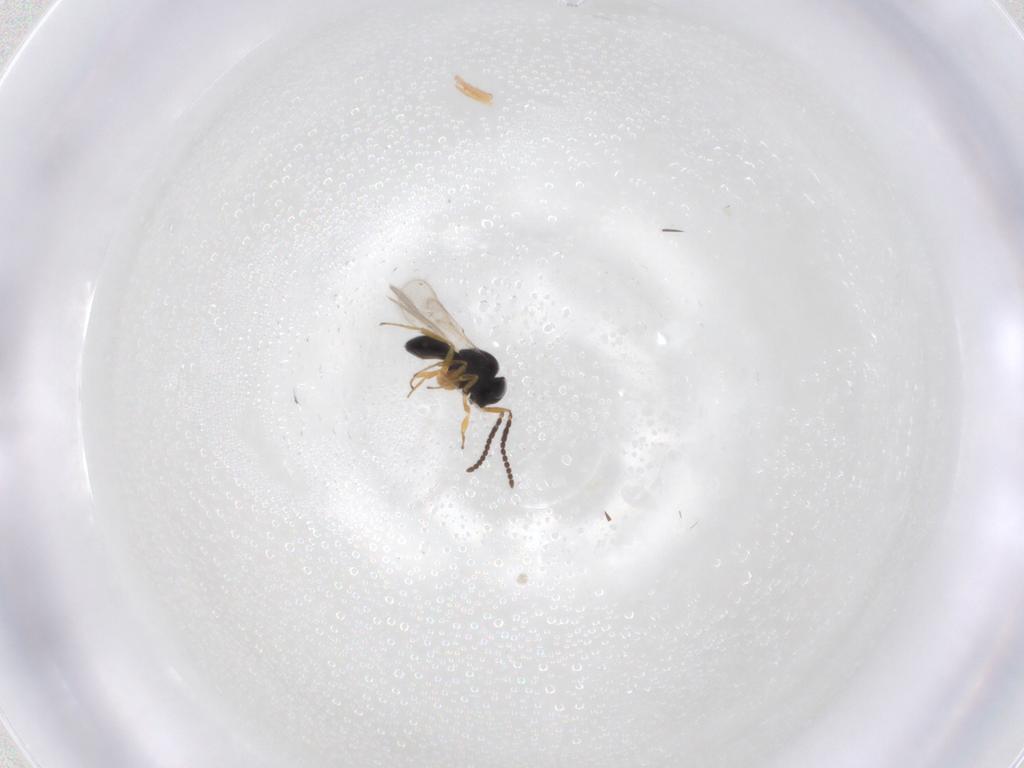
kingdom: Animalia
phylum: Arthropoda
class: Insecta
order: Hymenoptera
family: Scelionidae
